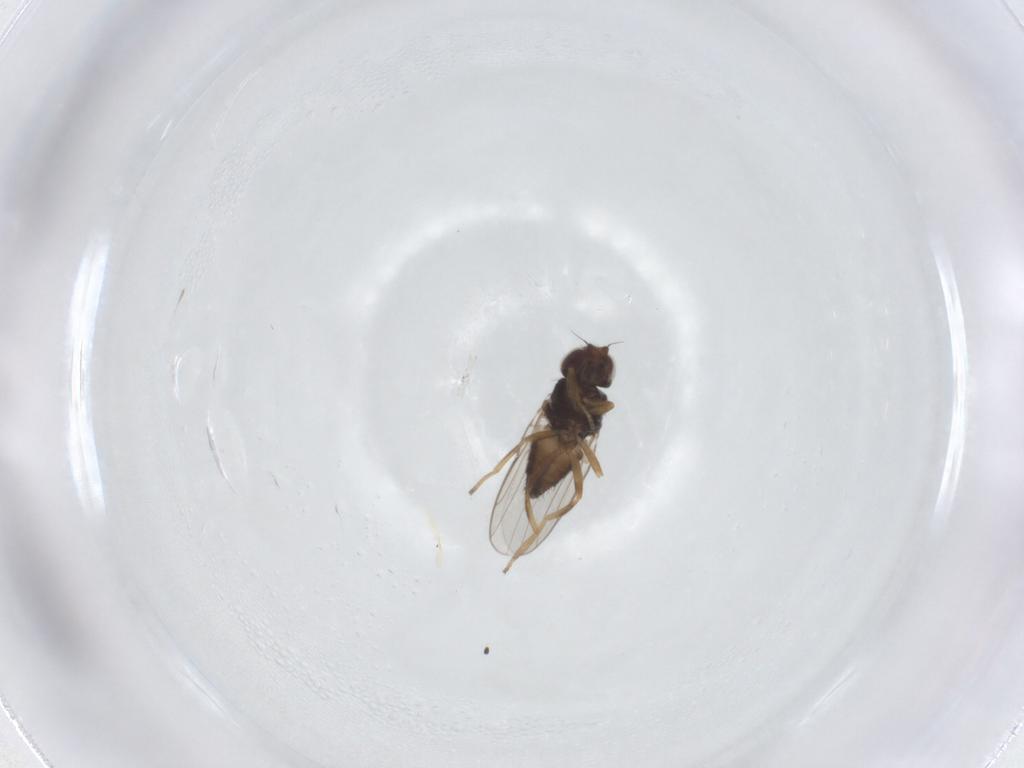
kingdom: Animalia
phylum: Arthropoda
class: Insecta
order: Diptera
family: Chloropidae
